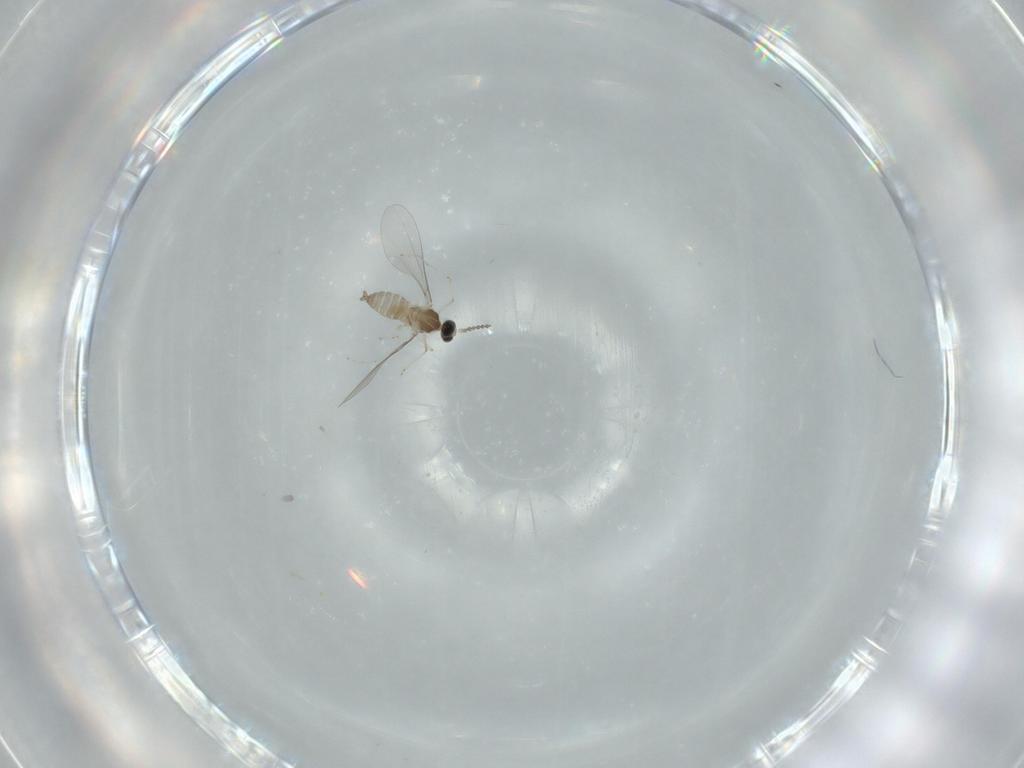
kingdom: Animalia
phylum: Arthropoda
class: Insecta
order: Diptera
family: Cecidomyiidae
